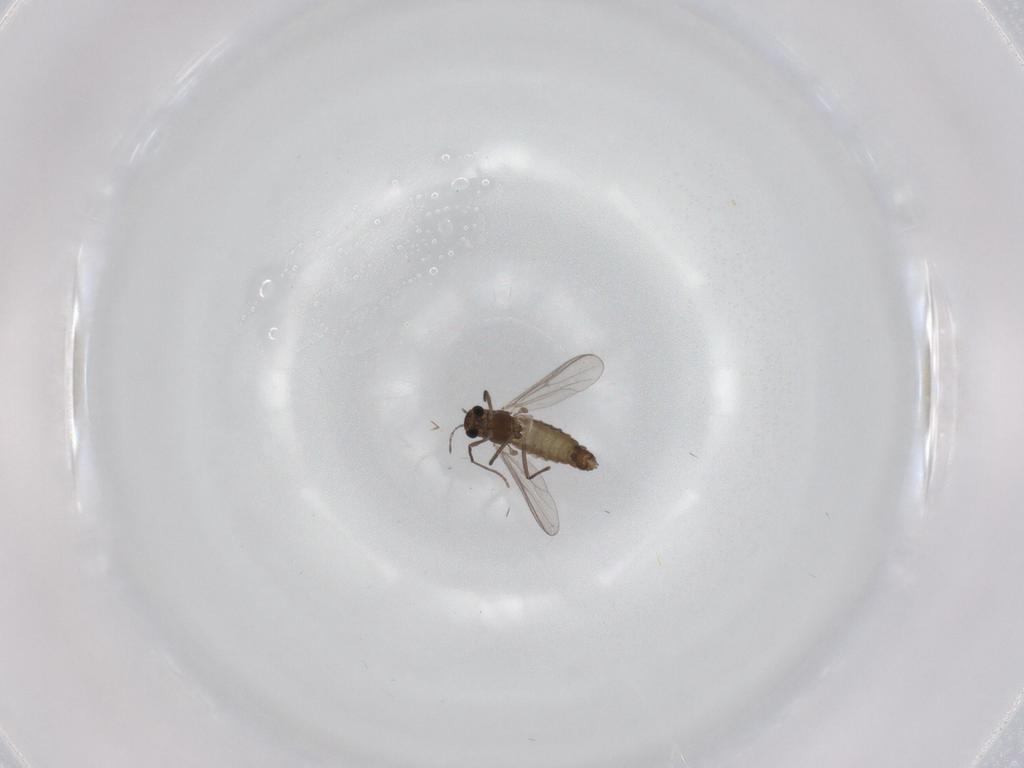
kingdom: Animalia
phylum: Arthropoda
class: Insecta
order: Diptera
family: Chironomidae
